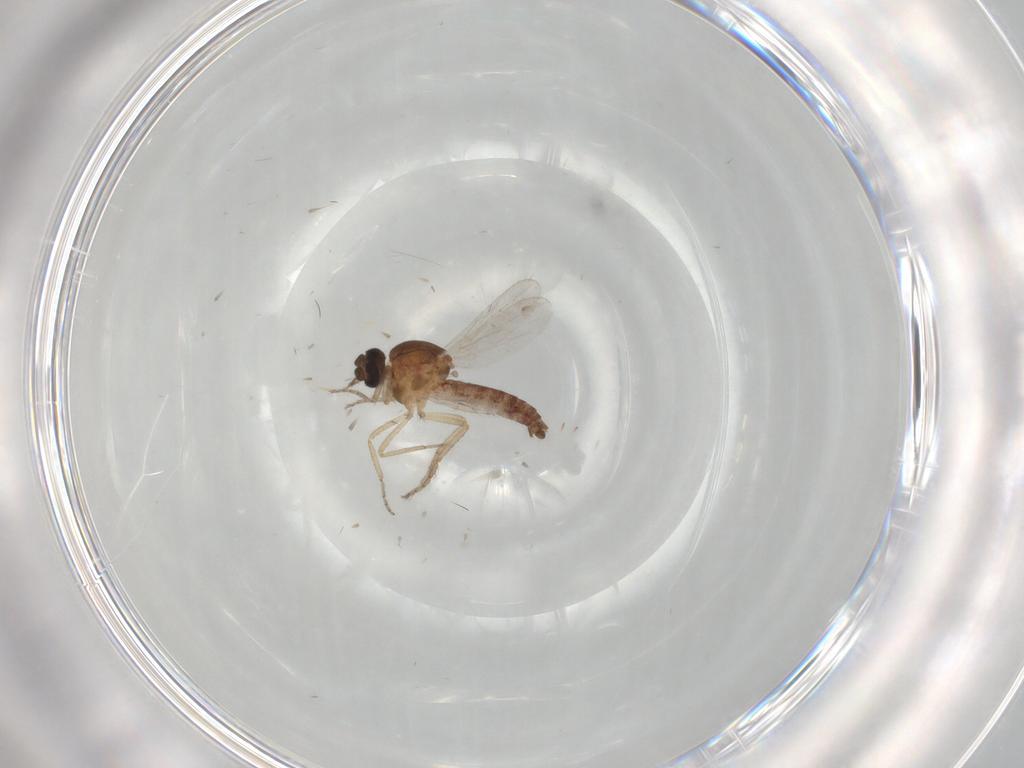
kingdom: Animalia
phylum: Arthropoda
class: Insecta
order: Diptera
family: Ceratopogonidae
